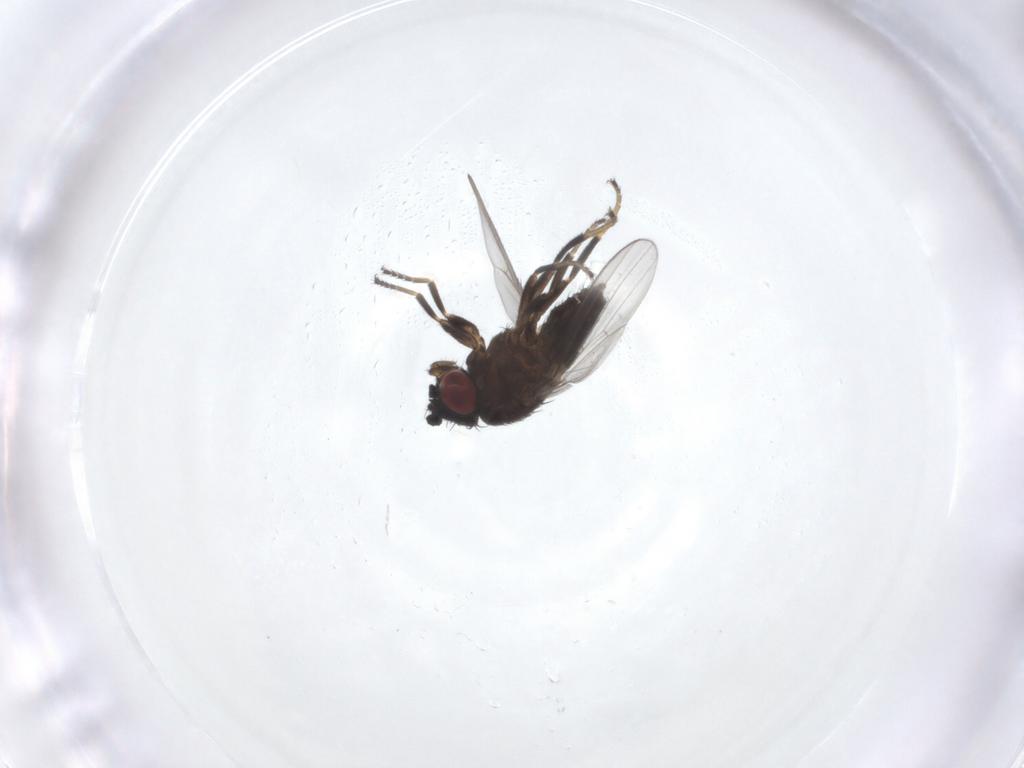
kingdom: Animalia
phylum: Arthropoda
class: Insecta
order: Diptera
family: Milichiidae
